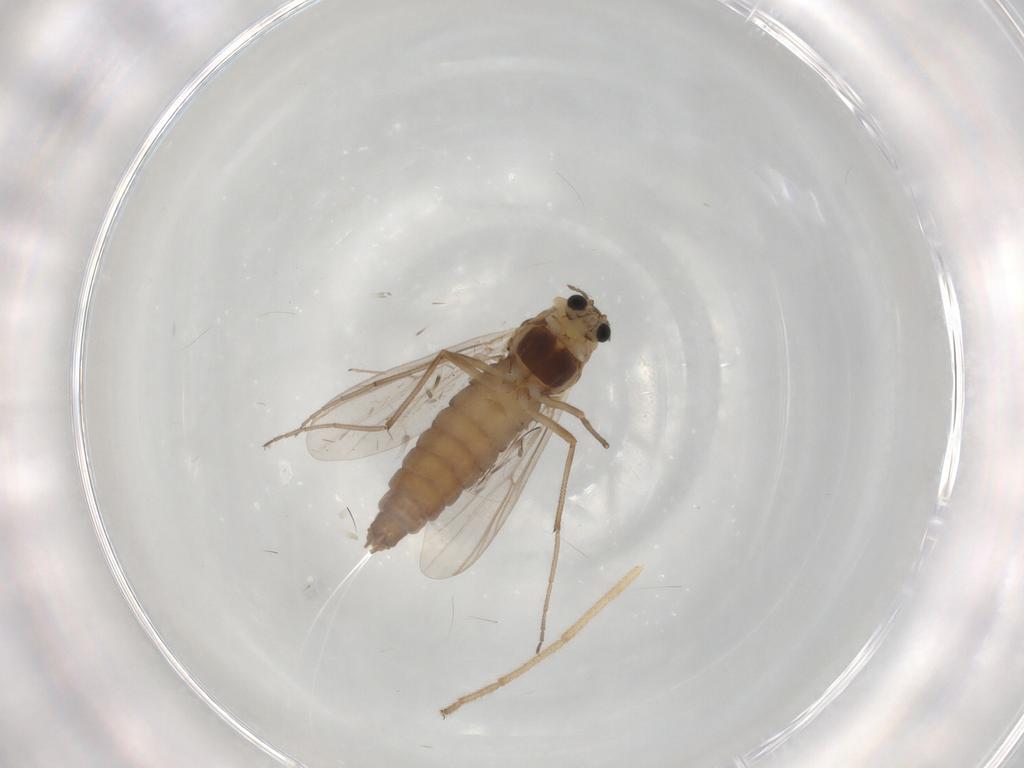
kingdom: Animalia
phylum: Arthropoda
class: Insecta
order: Diptera
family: Chironomidae
